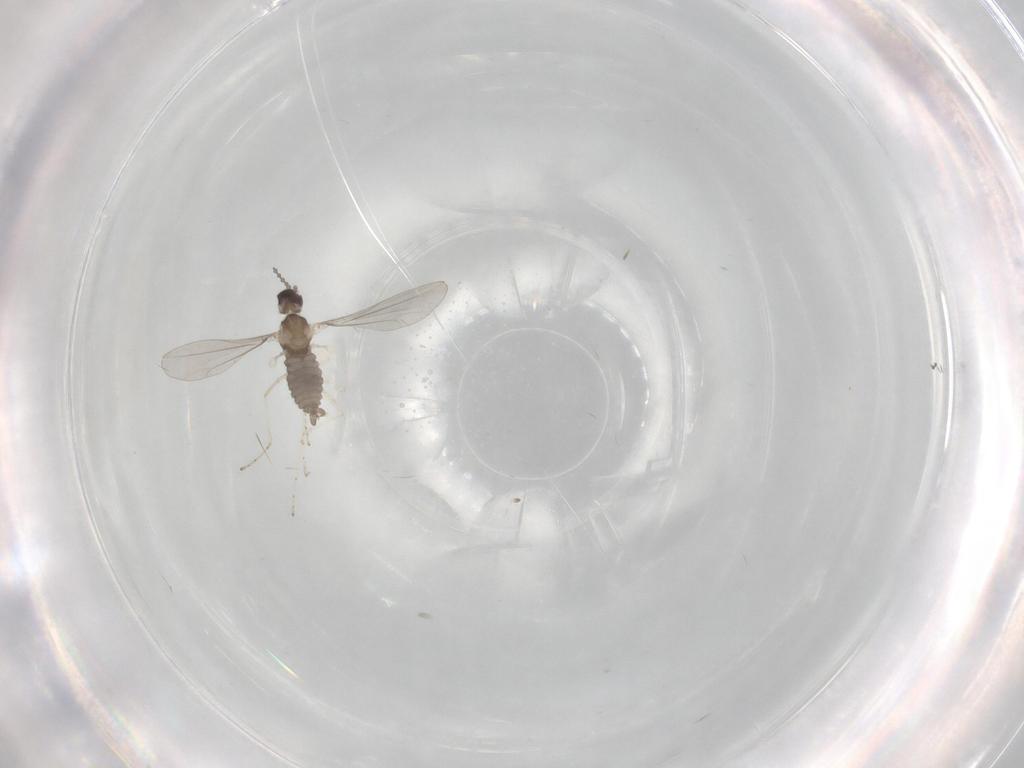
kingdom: Animalia
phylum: Arthropoda
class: Insecta
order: Diptera
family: Cecidomyiidae
